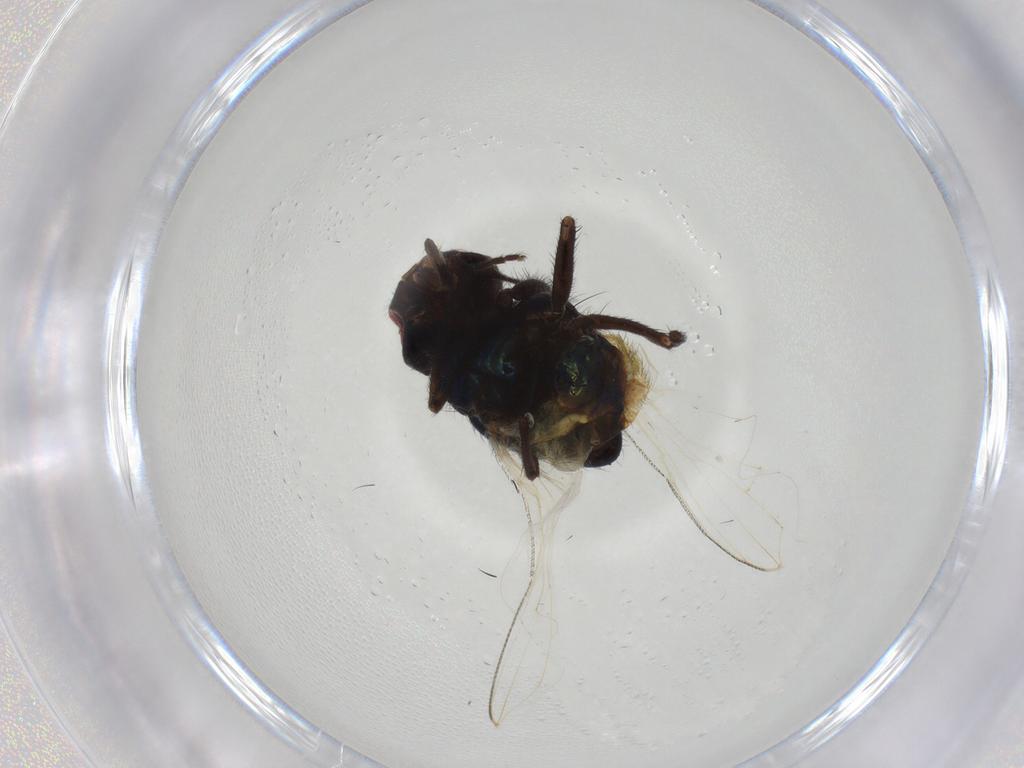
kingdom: Animalia
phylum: Arthropoda
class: Insecta
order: Diptera
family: Muscidae
